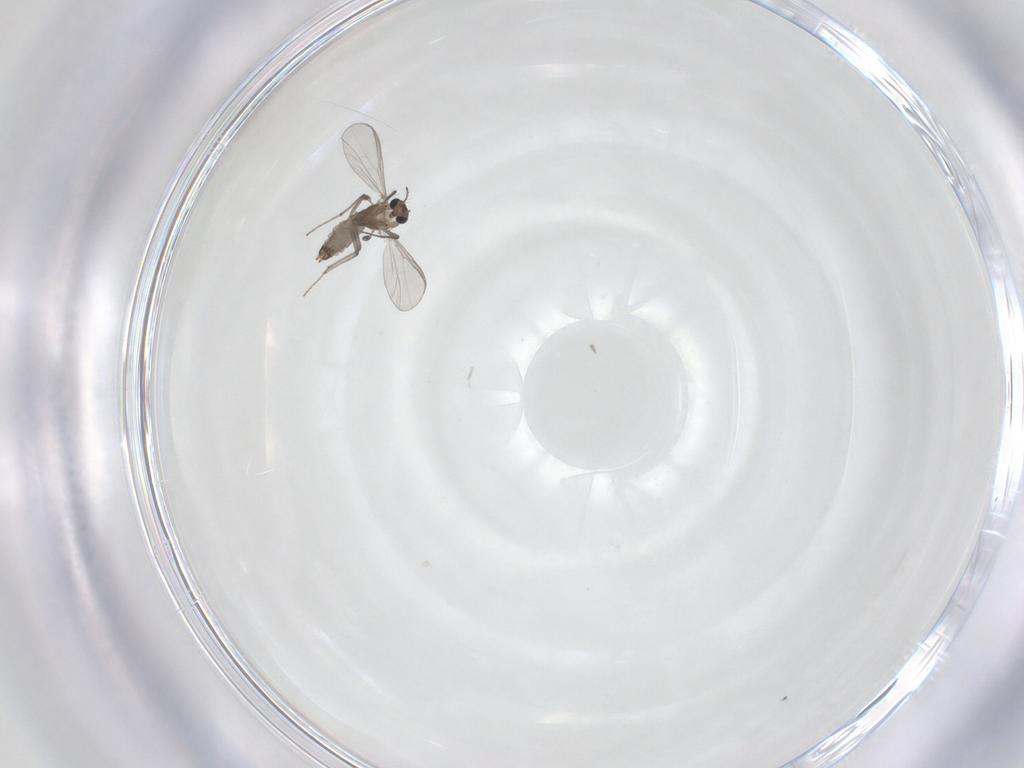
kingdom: Animalia
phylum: Arthropoda
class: Insecta
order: Diptera
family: Chironomidae
